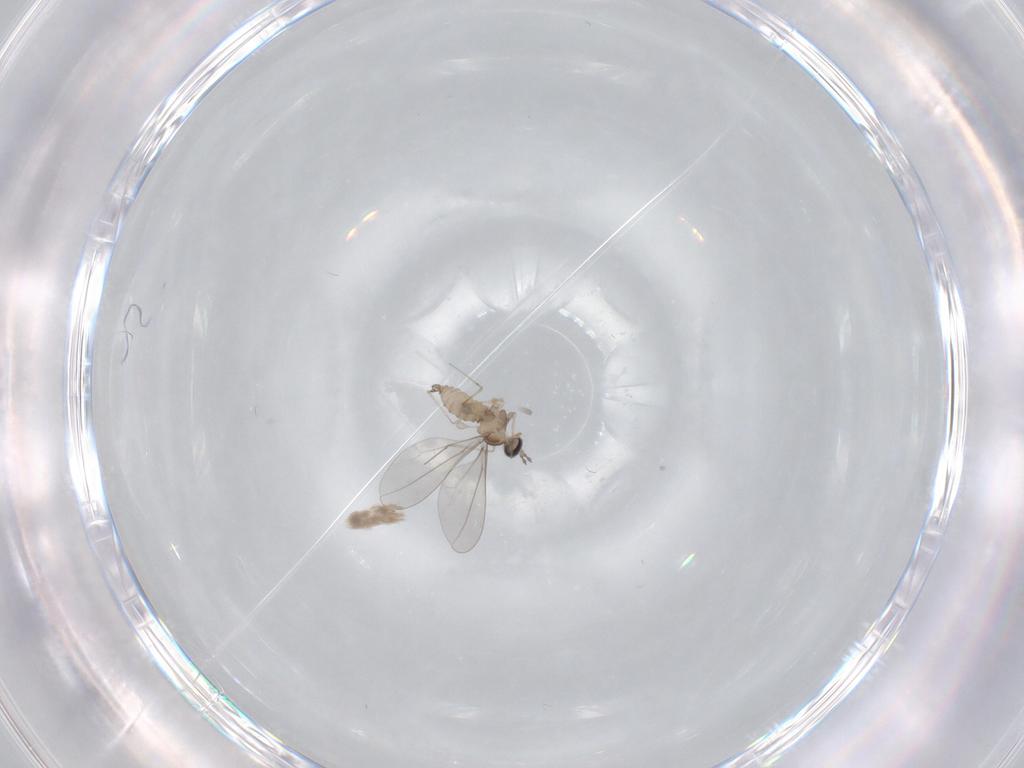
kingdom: Animalia
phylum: Arthropoda
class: Insecta
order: Diptera
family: Cecidomyiidae
